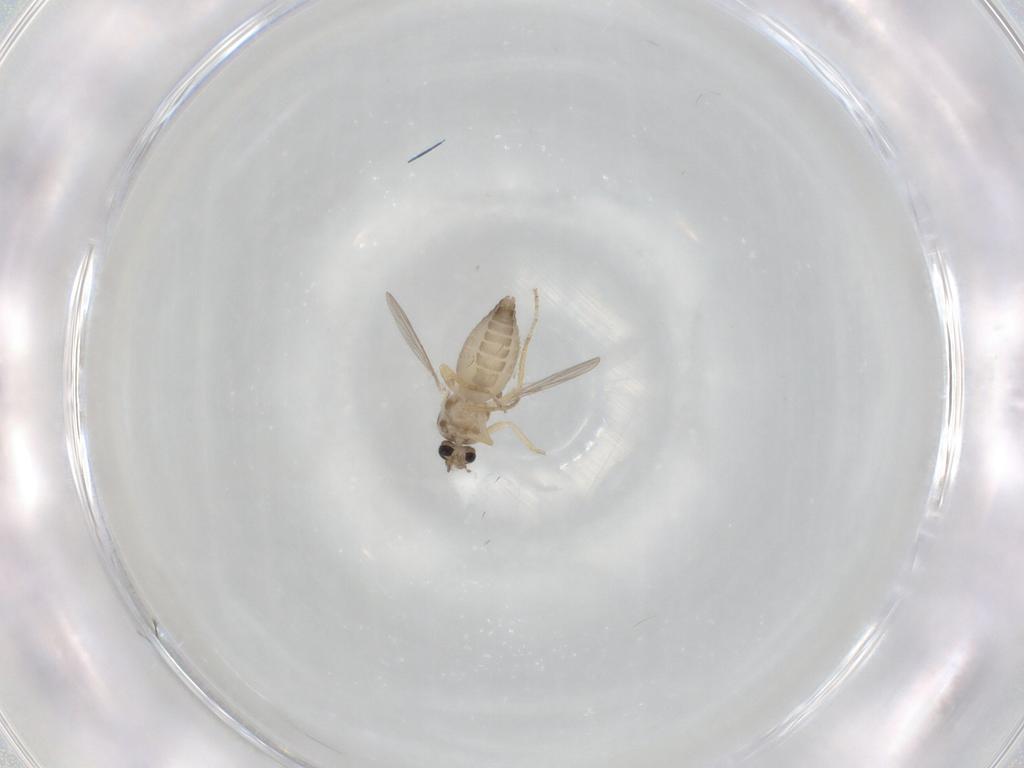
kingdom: Animalia
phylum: Arthropoda
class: Insecta
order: Diptera
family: Ceratopogonidae
